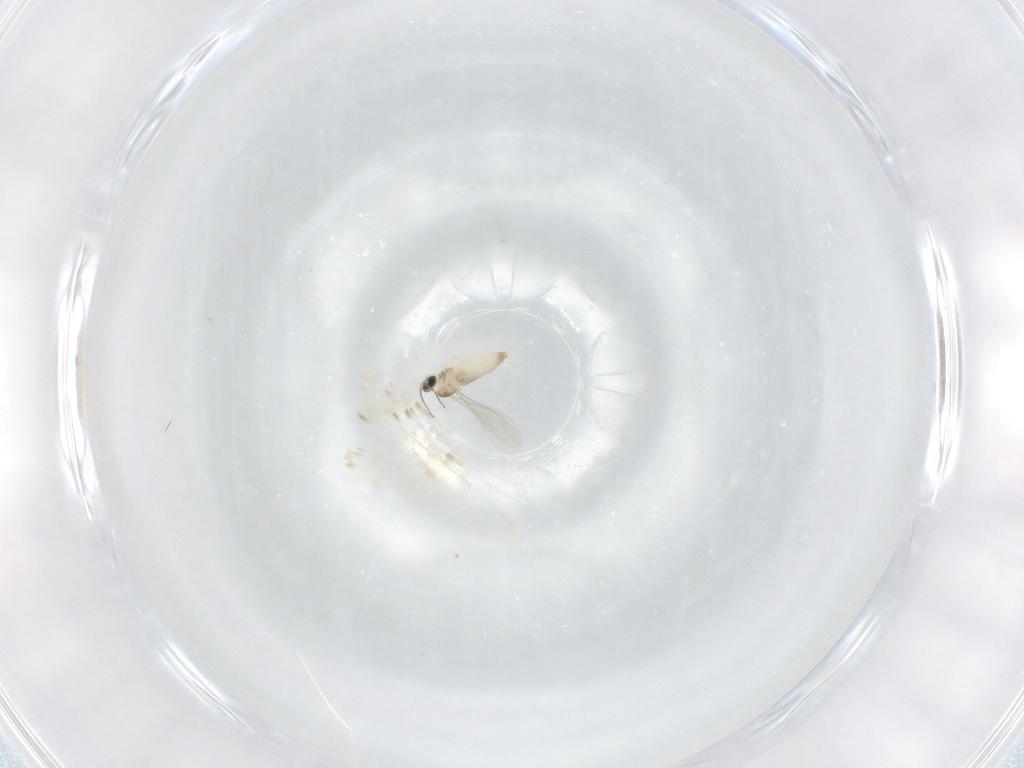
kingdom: Animalia
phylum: Arthropoda
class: Insecta
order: Diptera
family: Cecidomyiidae
